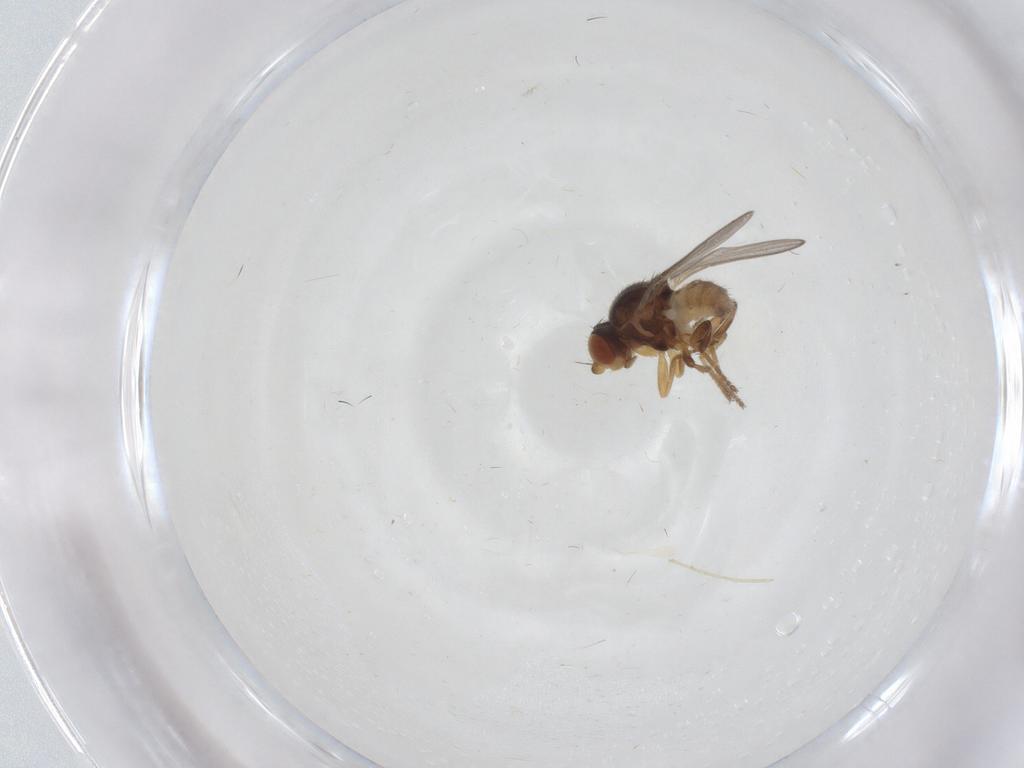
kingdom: Animalia
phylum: Arthropoda
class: Insecta
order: Diptera
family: Chloropidae
